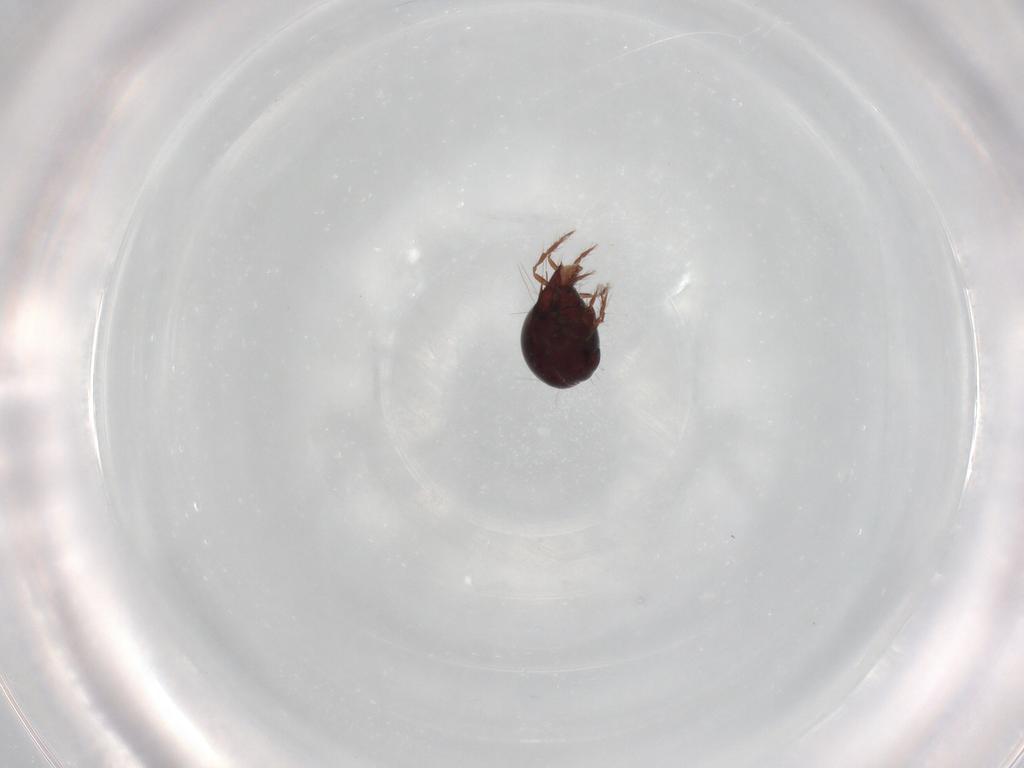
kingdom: Animalia
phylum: Arthropoda
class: Arachnida
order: Sarcoptiformes
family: Ceratoppiidae
